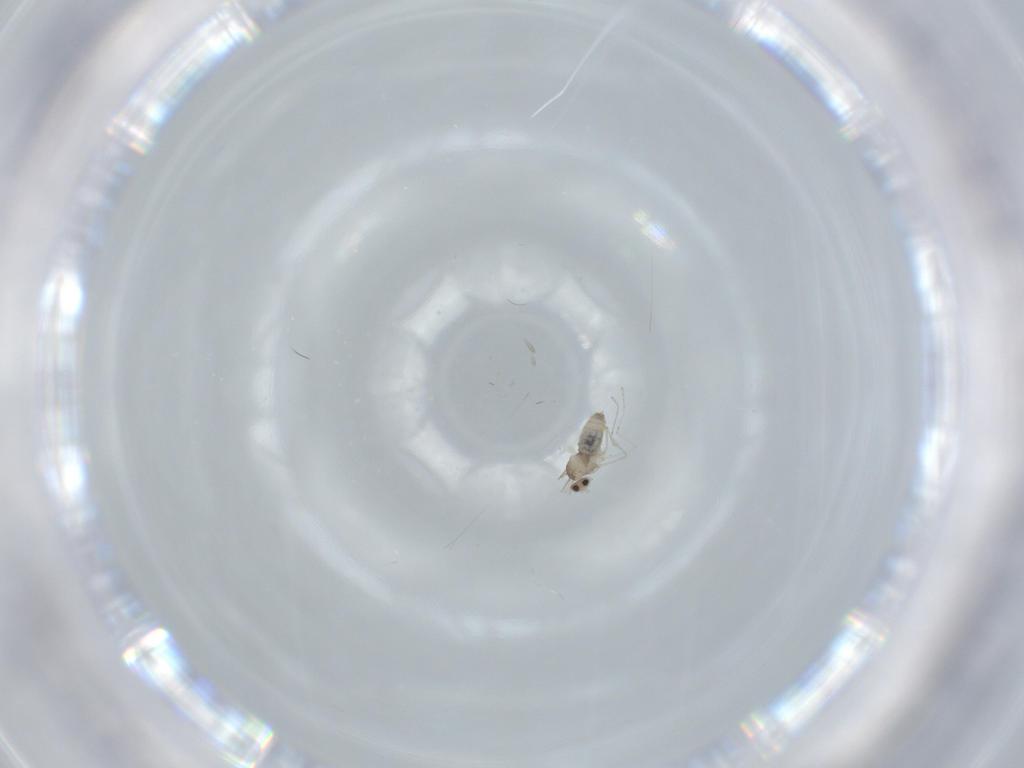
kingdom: Animalia
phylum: Arthropoda
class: Insecta
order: Diptera
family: Cecidomyiidae
